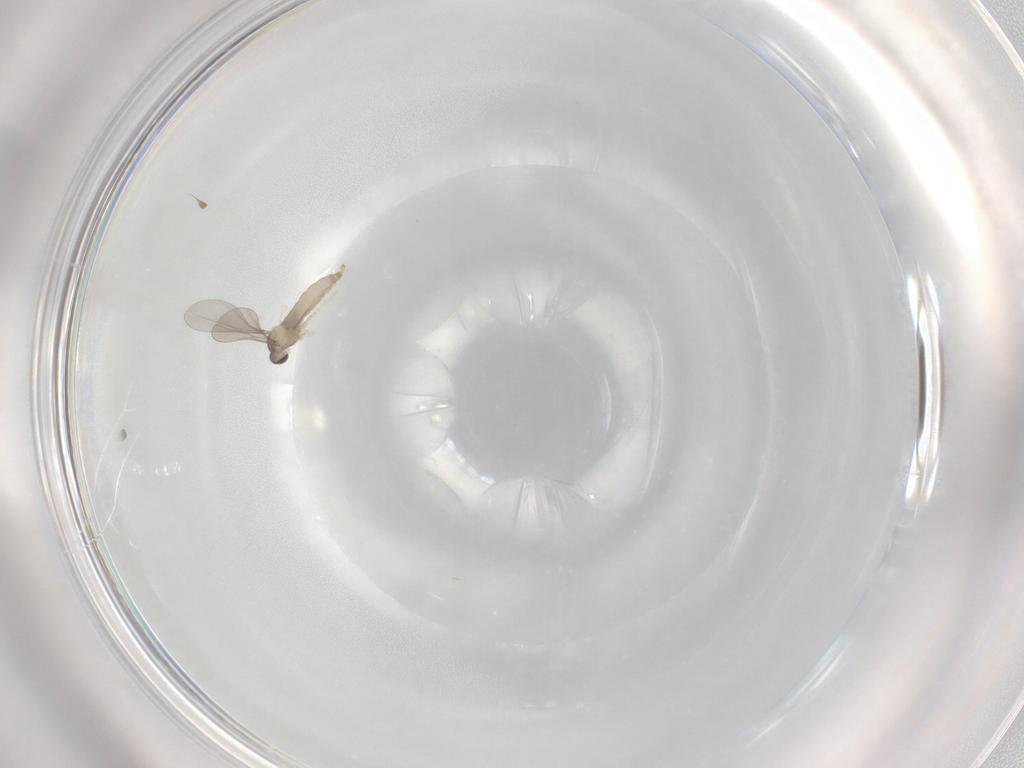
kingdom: Animalia
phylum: Arthropoda
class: Insecta
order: Diptera
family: Cecidomyiidae
